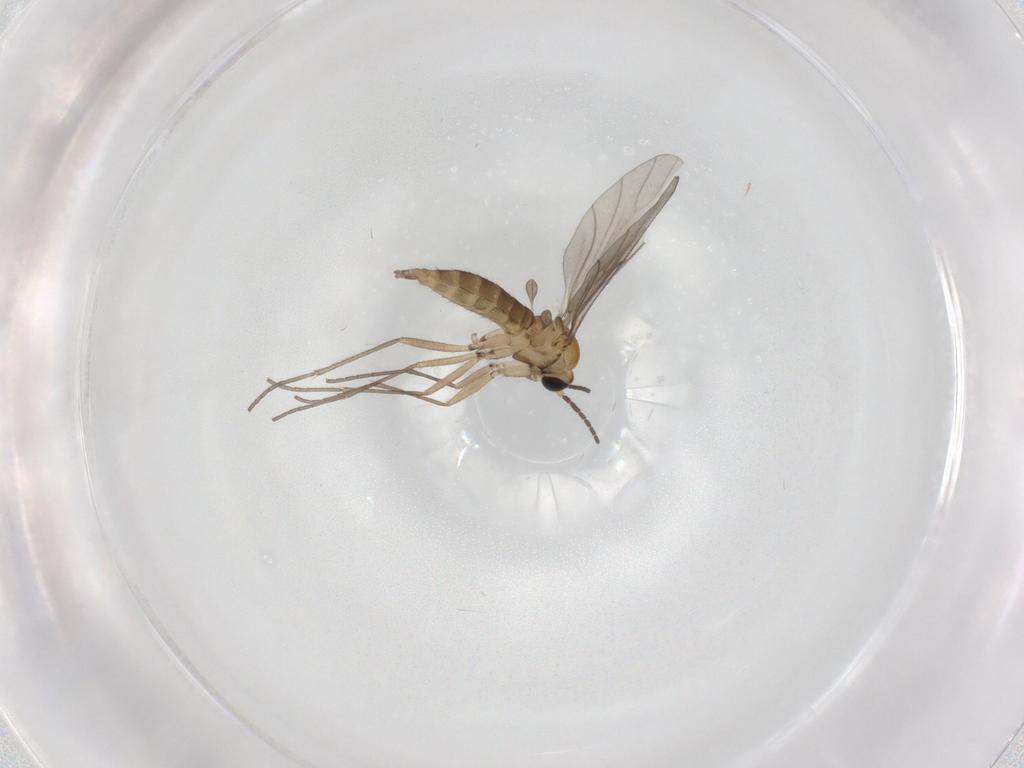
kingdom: Animalia
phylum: Arthropoda
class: Insecta
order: Diptera
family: Sciaridae
